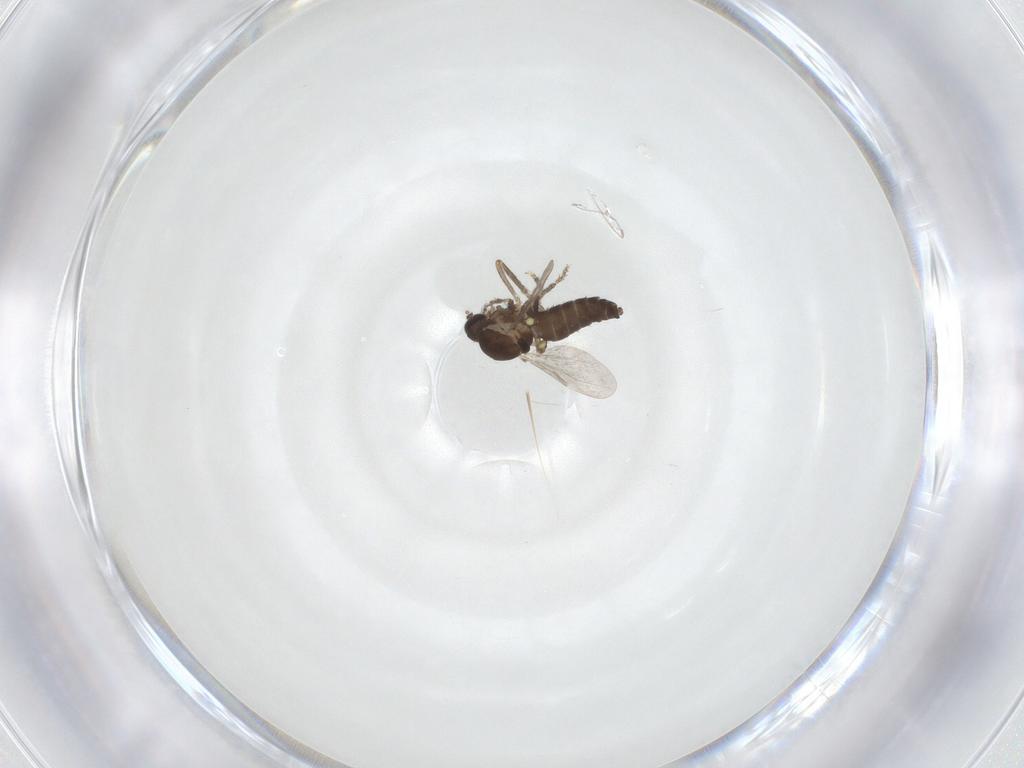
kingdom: Animalia
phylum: Arthropoda
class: Insecta
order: Diptera
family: Ceratopogonidae
